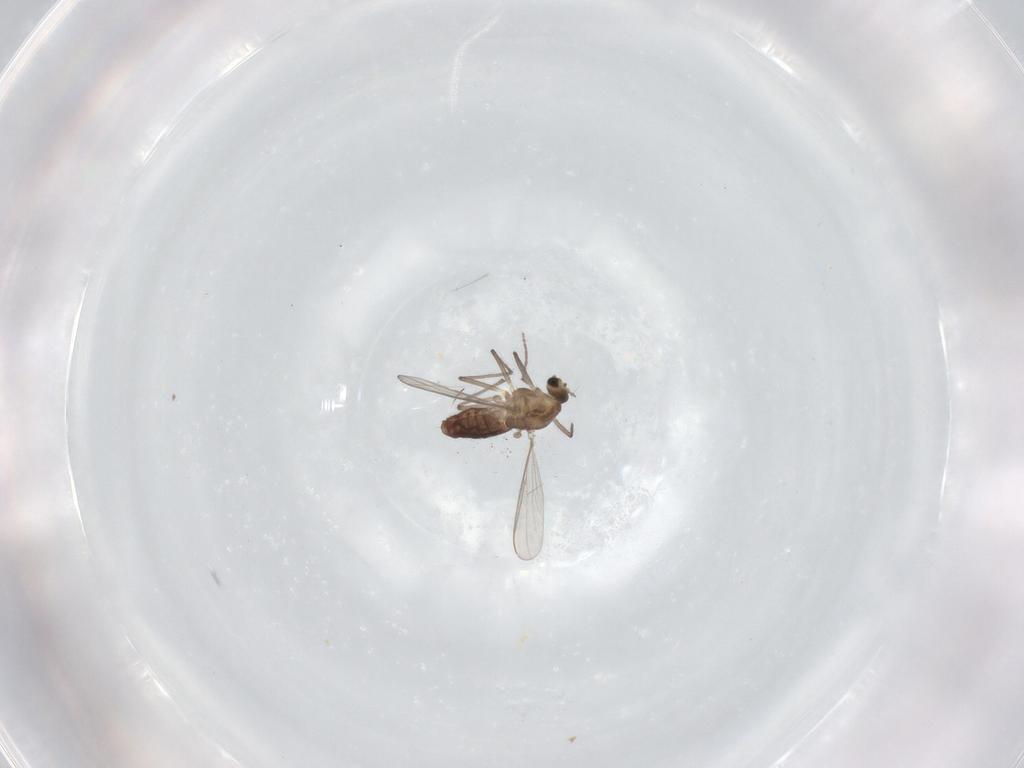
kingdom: Animalia
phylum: Arthropoda
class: Insecta
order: Diptera
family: Chironomidae
